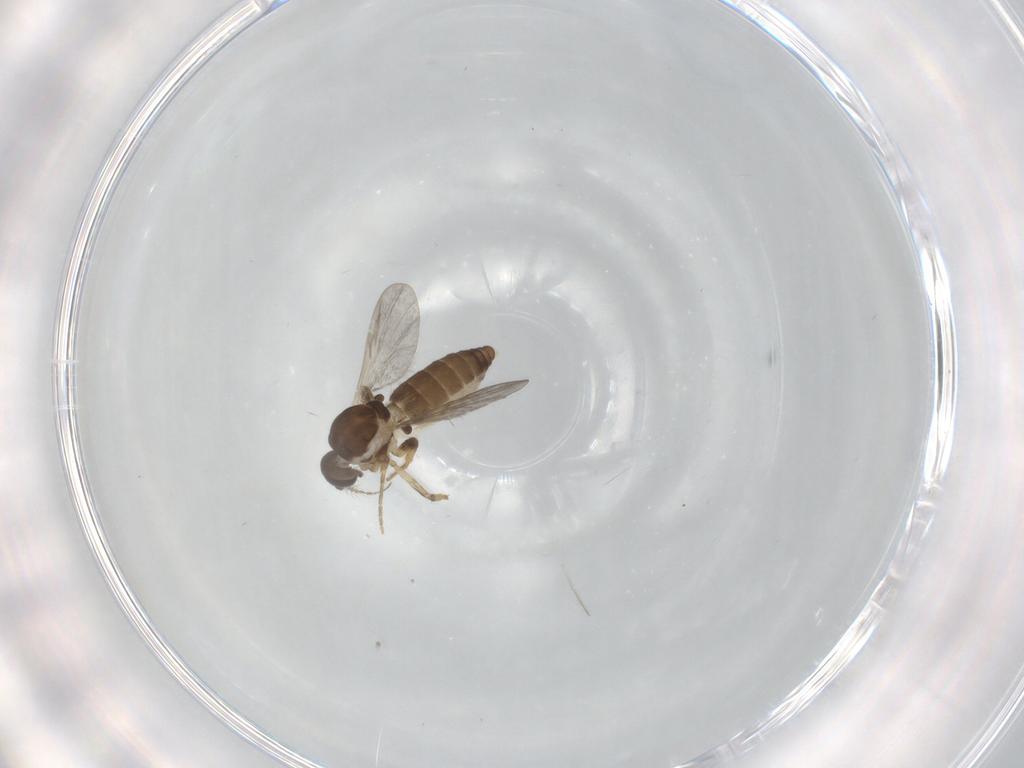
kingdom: Animalia
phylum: Arthropoda
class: Insecta
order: Diptera
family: Ceratopogonidae
